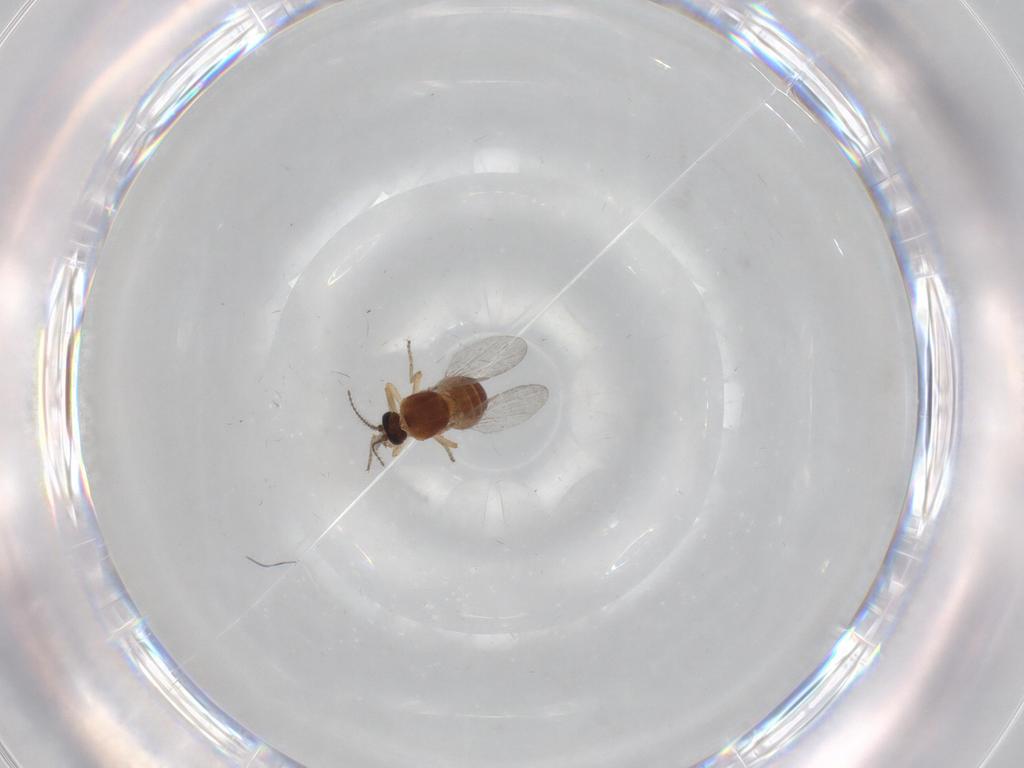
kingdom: Animalia
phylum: Arthropoda
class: Insecta
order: Diptera
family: Ceratopogonidae
